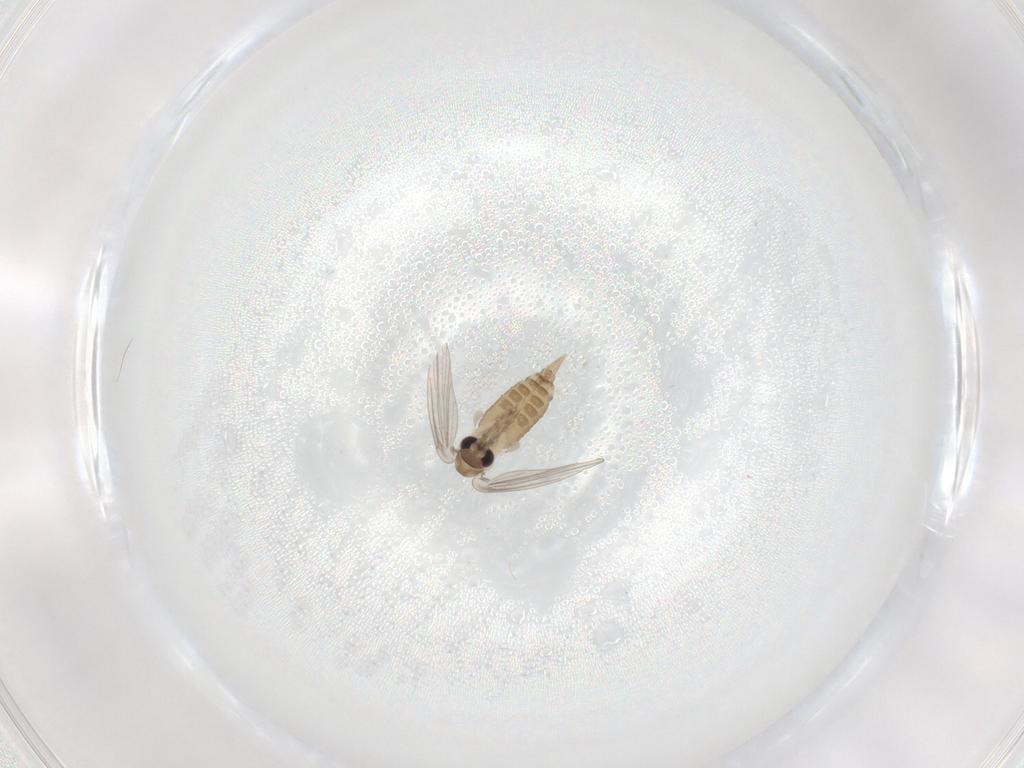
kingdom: Animalia
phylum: Arthropoda
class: Insecta
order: Diptera
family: Psychodidae
